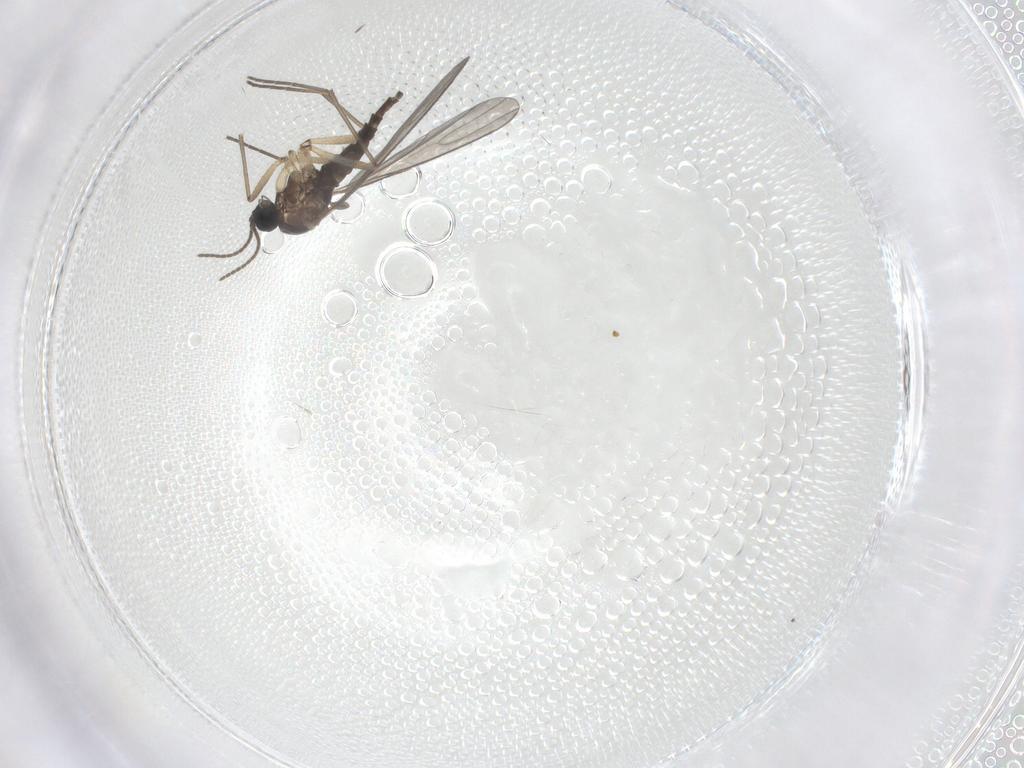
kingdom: Animalia
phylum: Arthropoda
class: Insecta
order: Diptera
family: Sciaridae
